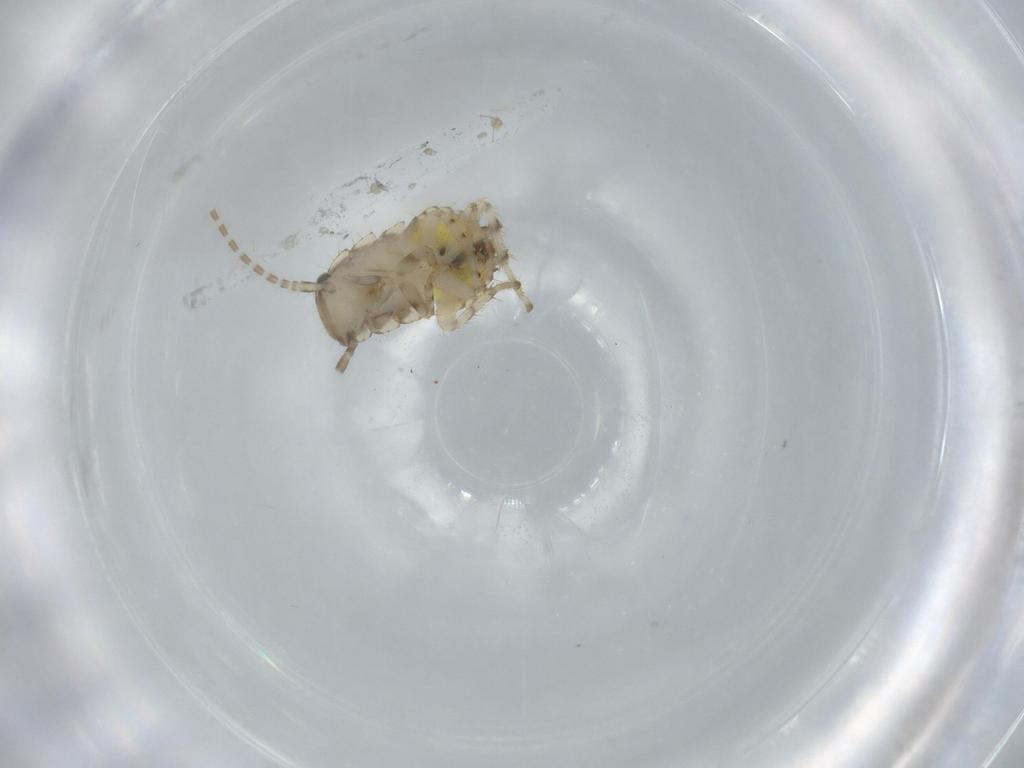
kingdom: Animalia
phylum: Arthropoda
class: Insecta
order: Blattodea
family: Ectobiidae
